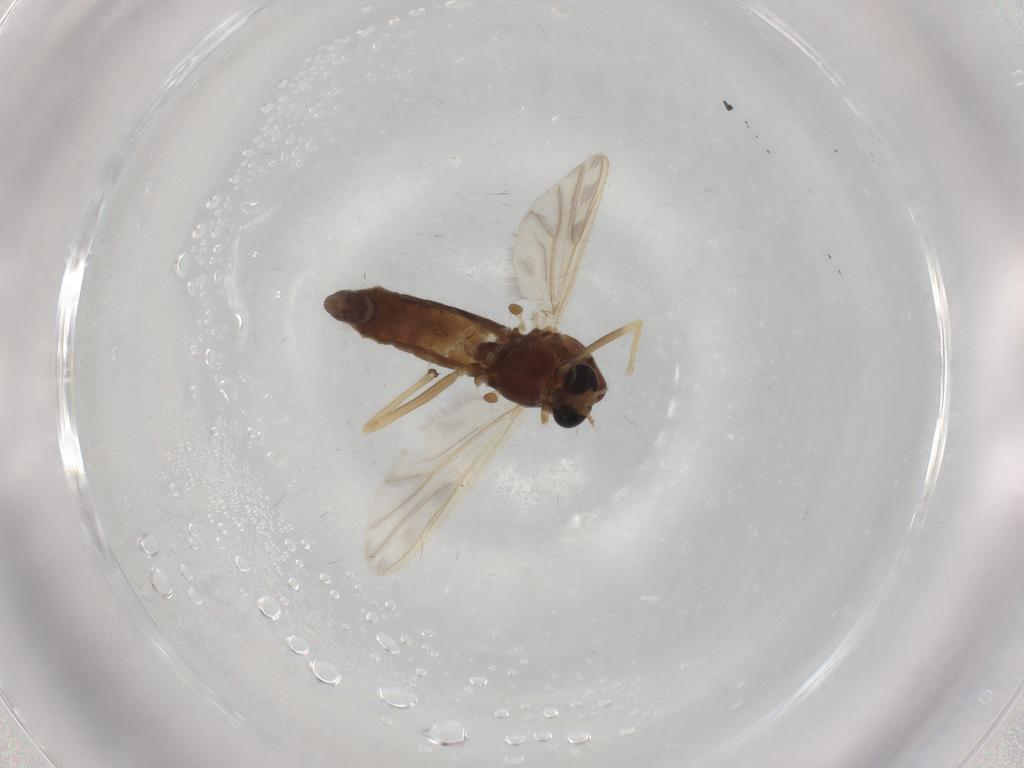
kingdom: Animalia
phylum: Arthropoda
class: Insecta
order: Diptera
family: Chironomidae
